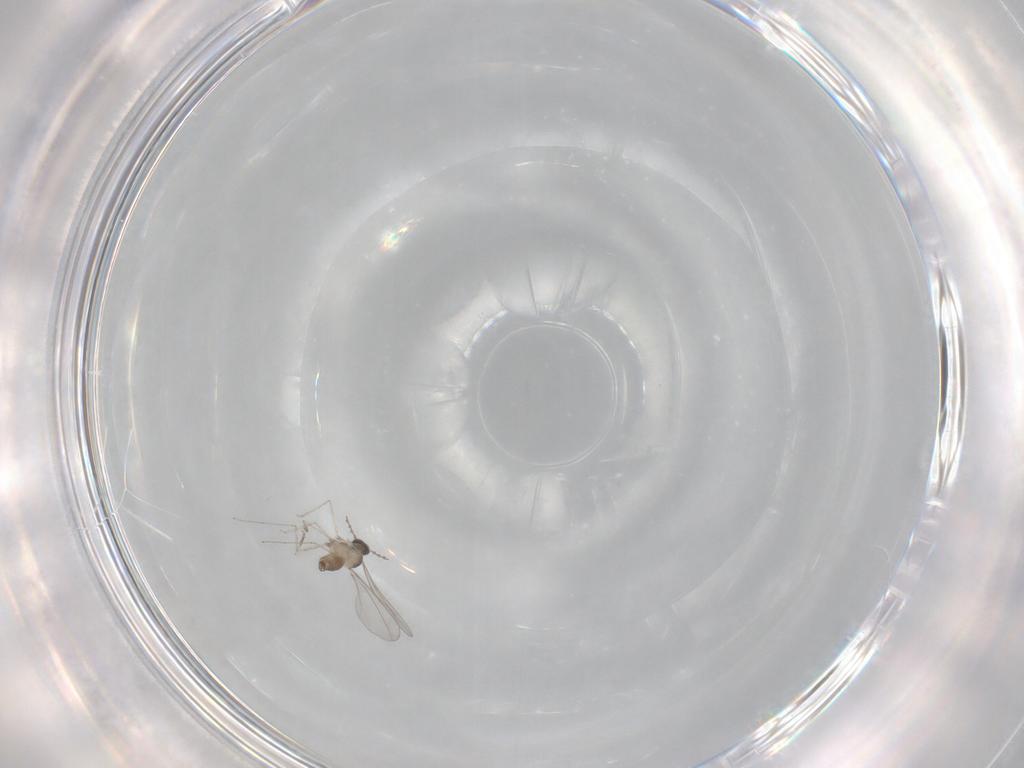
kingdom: Animalia
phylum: Arthropoda
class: Insecta
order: Diptera
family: Cecidomyiidae
